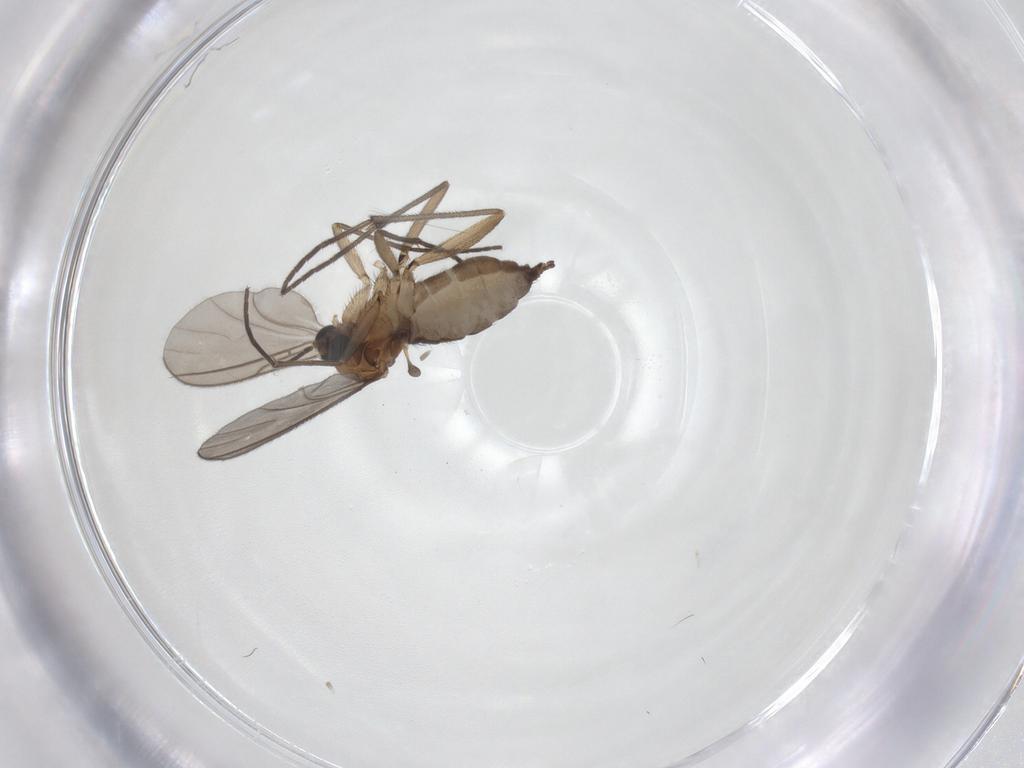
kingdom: Animalia
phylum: Arthropoda
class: Insecta
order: Diptera
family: Sciaridae
